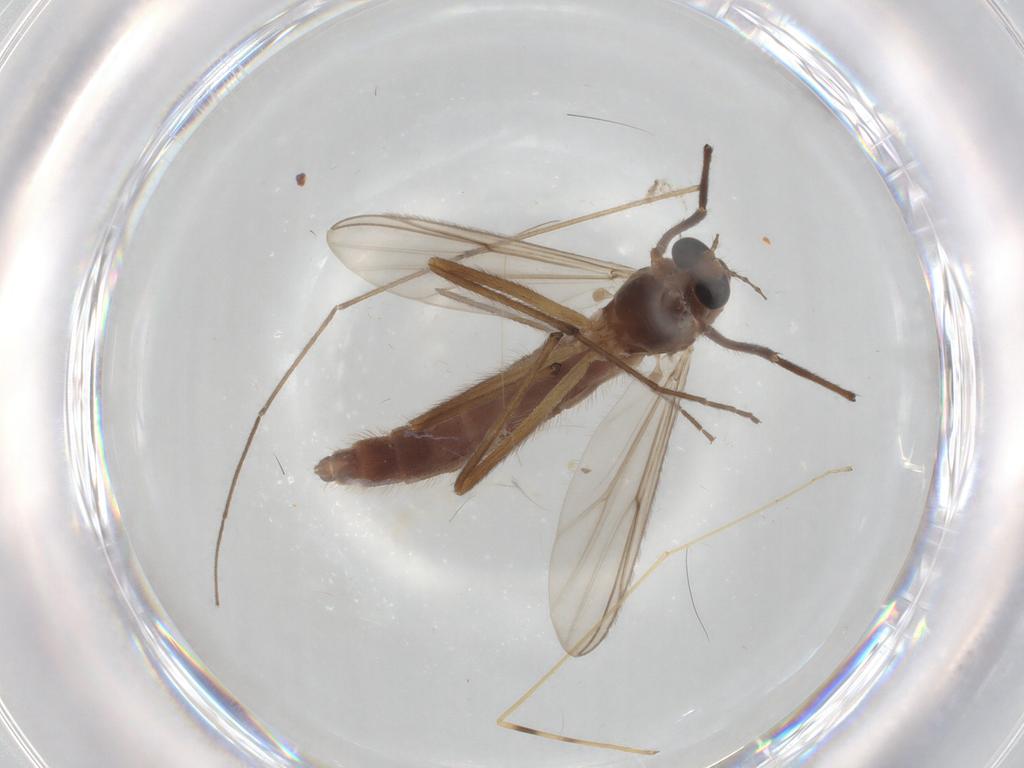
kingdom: Animalia
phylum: Arthropoda
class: Insecta
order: Diptera
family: Chironomidae
